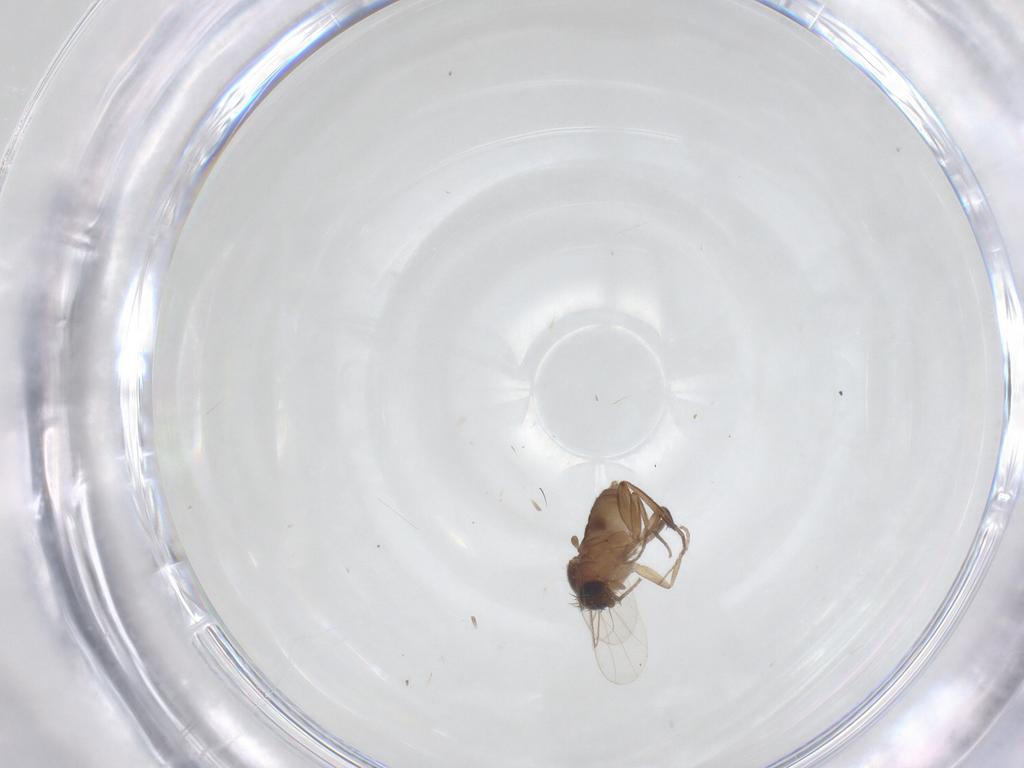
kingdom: Animalia
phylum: Arthropoda
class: Insecta
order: Diptera
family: Phoridae
